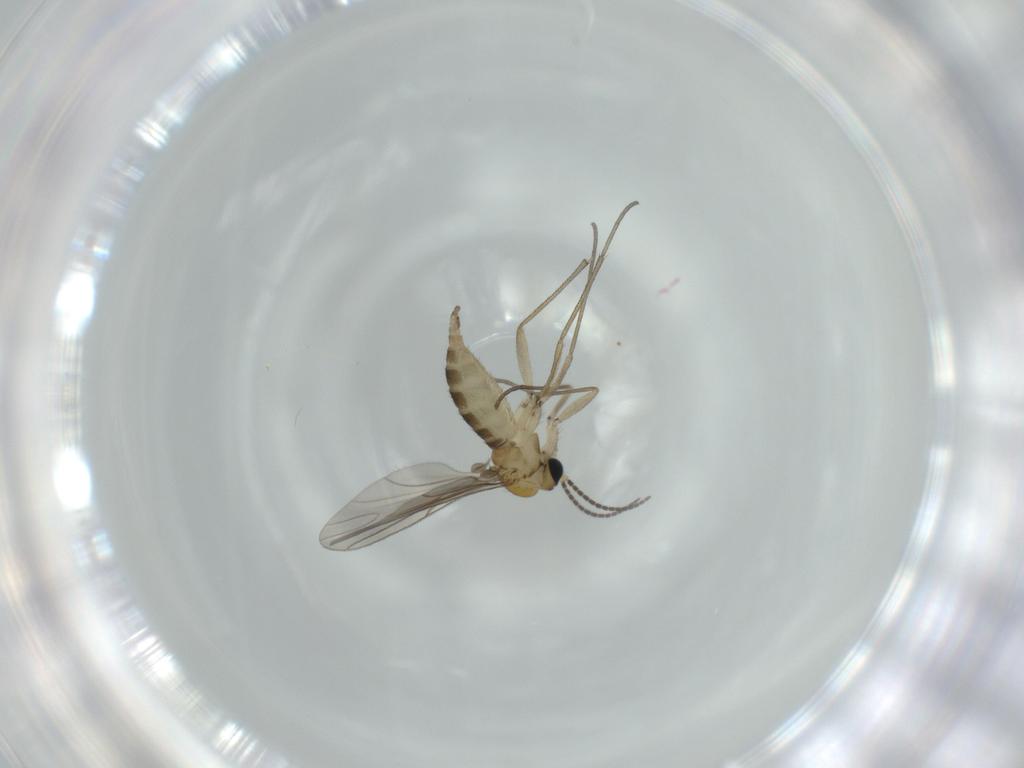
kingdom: Animalia
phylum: Arthropoda
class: Insecta
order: Diptera
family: Sciaridae
